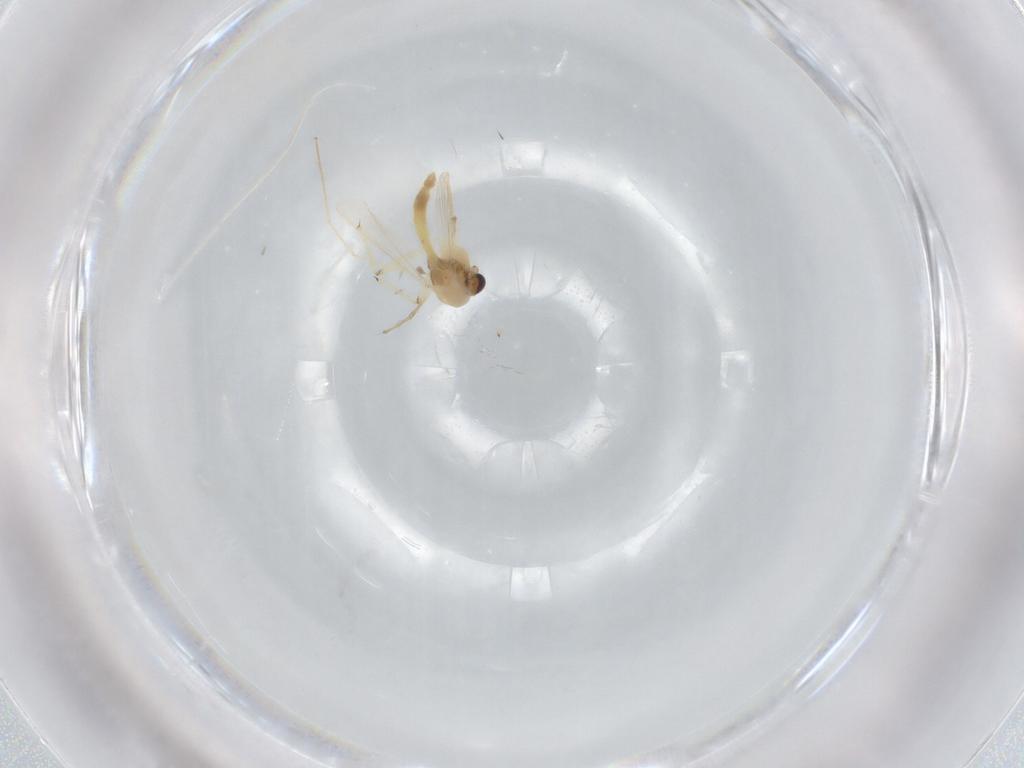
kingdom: Animalia
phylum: Arthropoda
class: Insecta
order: Diptera
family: Chironomidae
